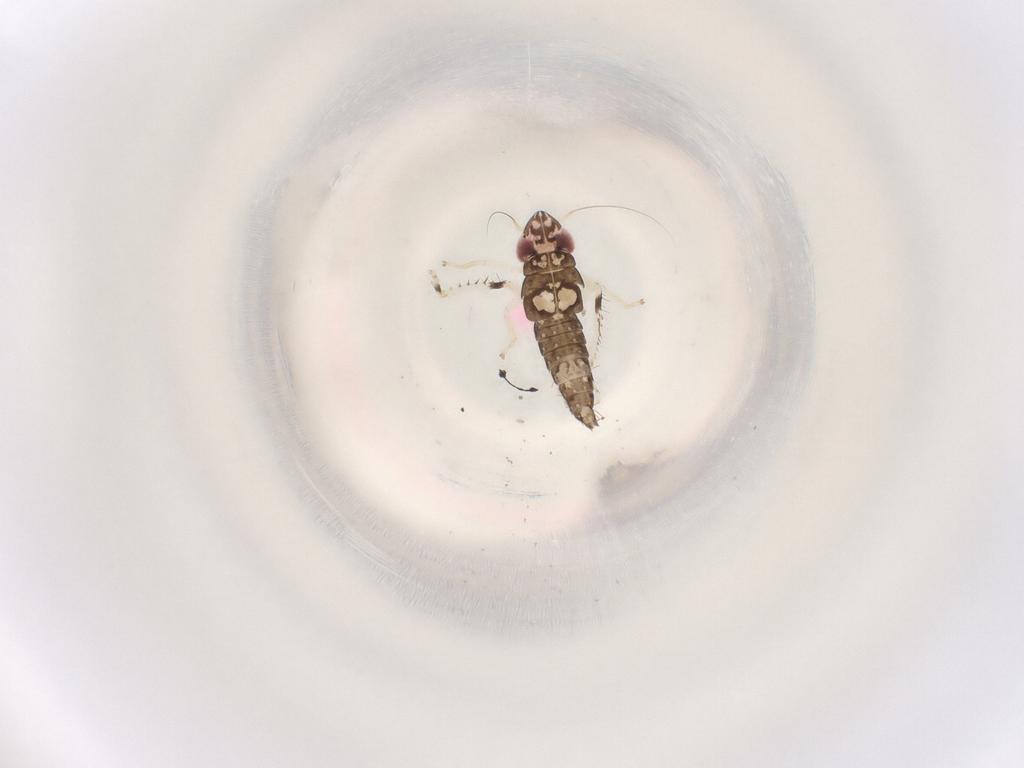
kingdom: Animalia
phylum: Arthropoda
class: Insecta
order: Hemiptera
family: Cicadellidae
